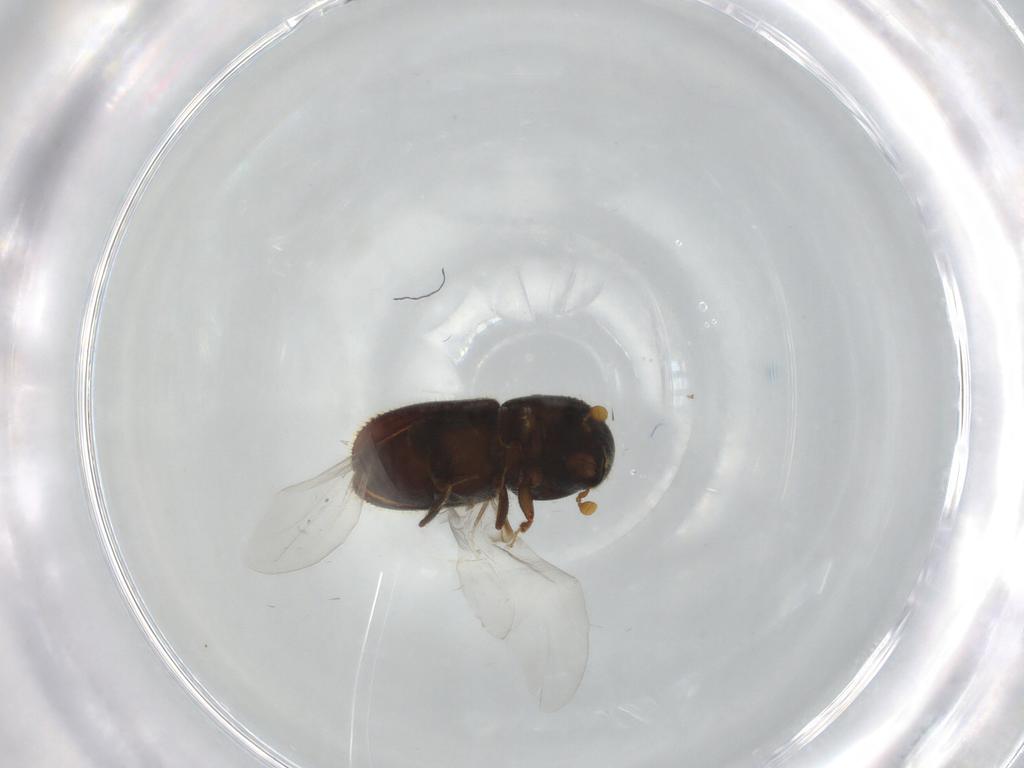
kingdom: Animalia
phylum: Arthropoda
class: Insecta
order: Coleoptera
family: Curculionidae
